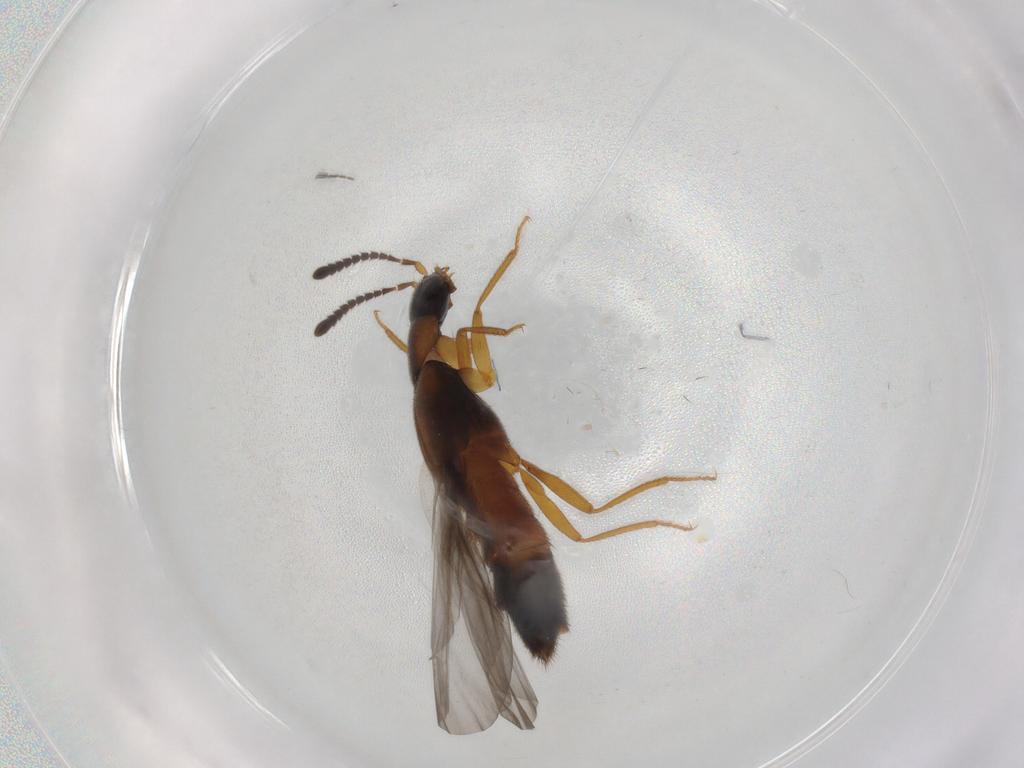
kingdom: Animalia
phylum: Arthropoda
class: Insecta
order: Coleoptera
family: Staphylinidae
